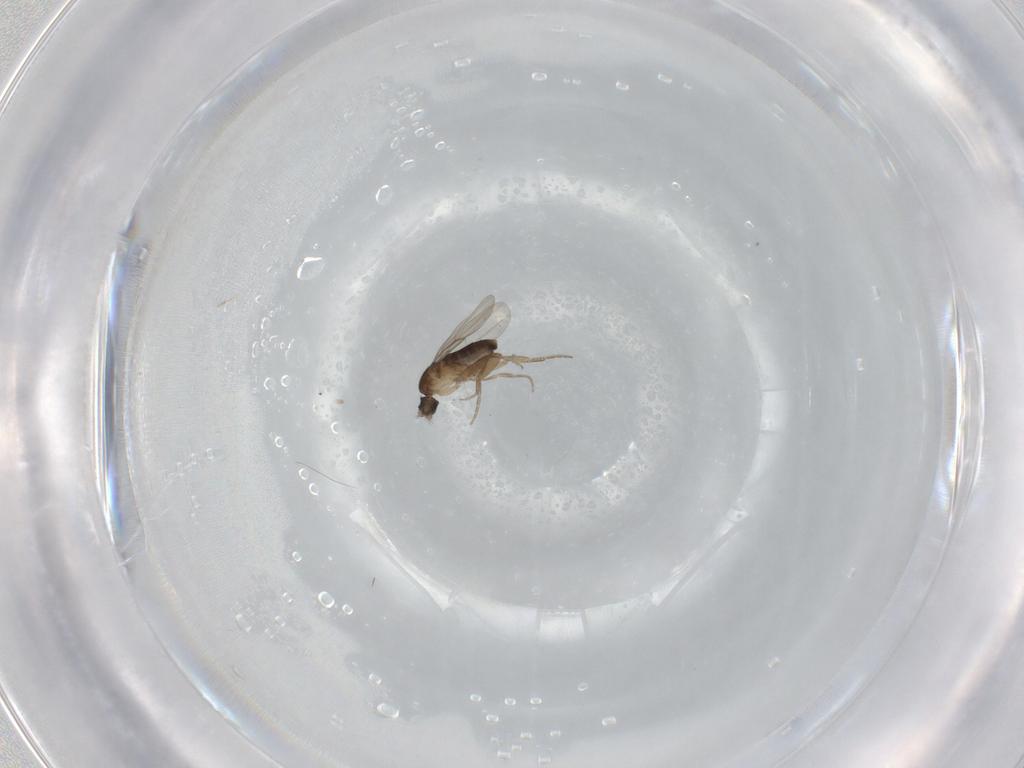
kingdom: Animalia
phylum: Arthropoda
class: Insecta
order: Diptera
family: Phoridae
